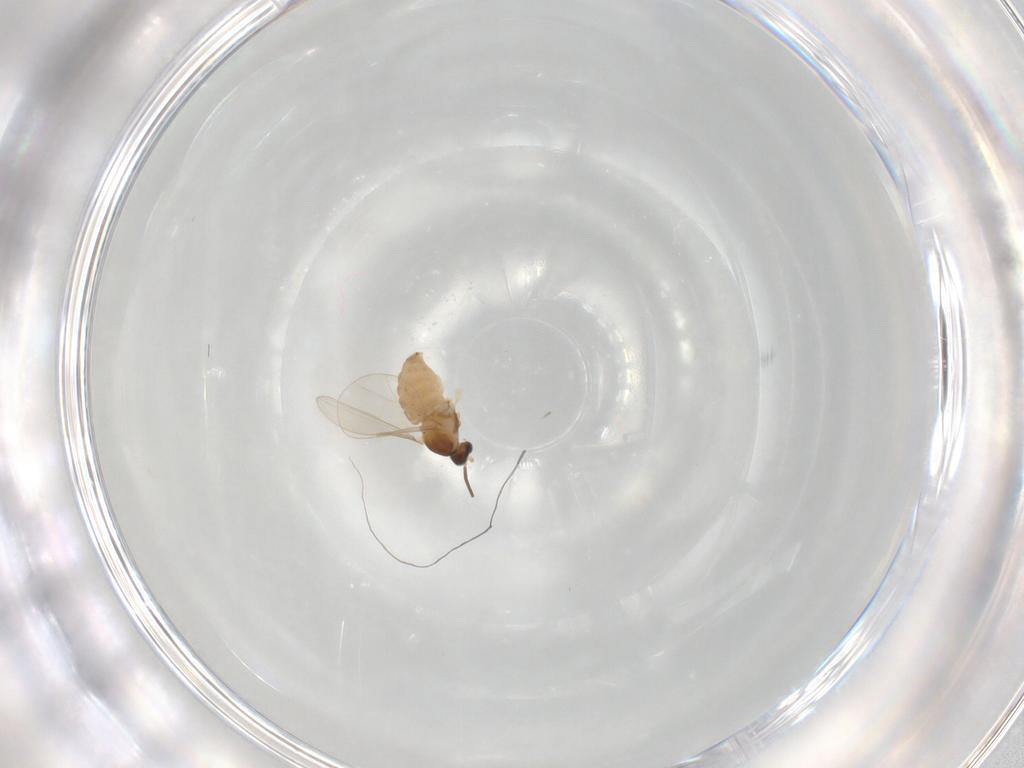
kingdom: Animalia
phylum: Arthropoda
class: Insecta
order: Diptera
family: Cecidomyiidae
